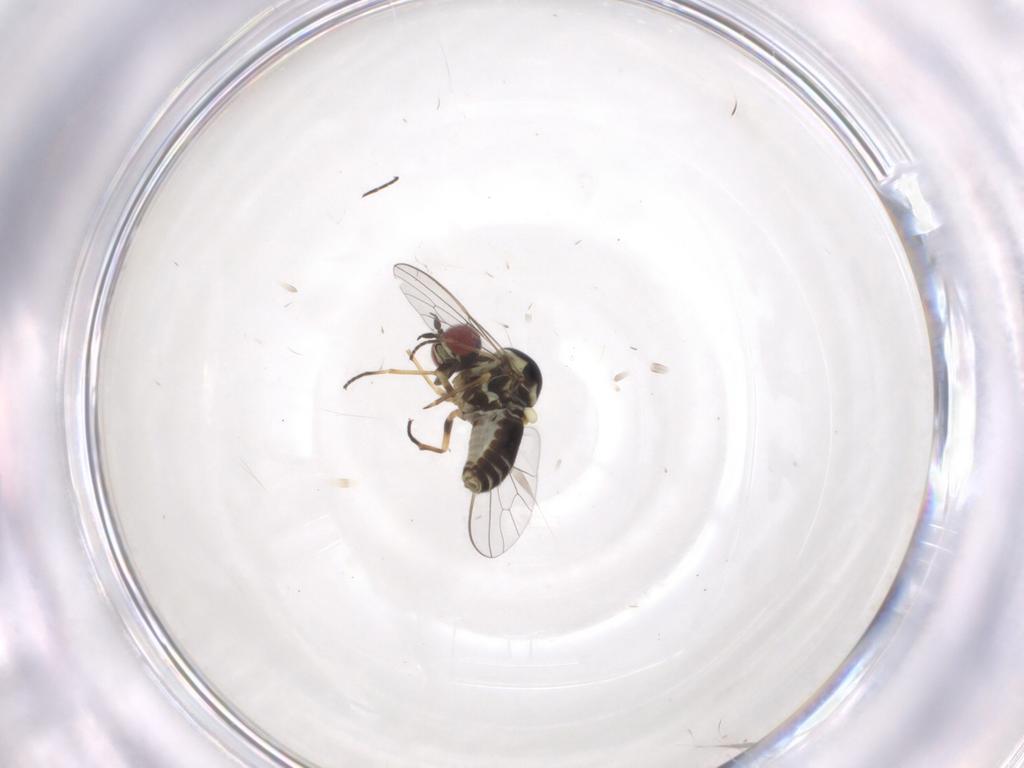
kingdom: Animalia
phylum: Arthropoda
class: Insecta
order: Diptera
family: Bombyliidae
